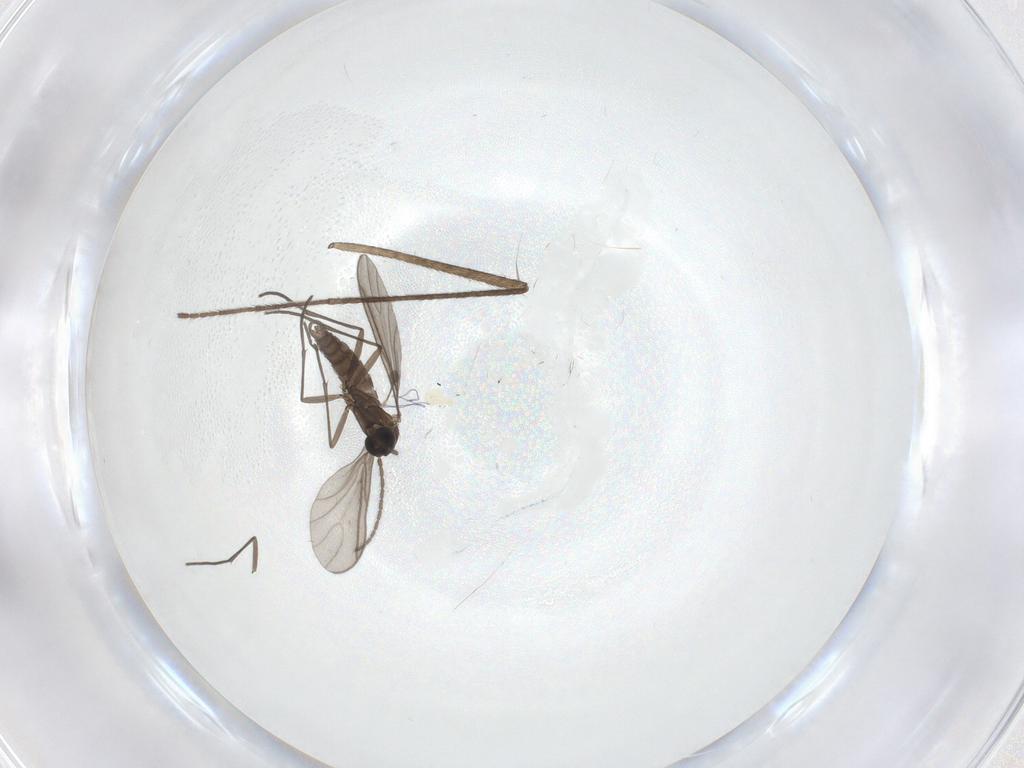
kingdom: Animalia
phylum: Arthropoda
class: Insecta
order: Diptera
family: Limoniidae
